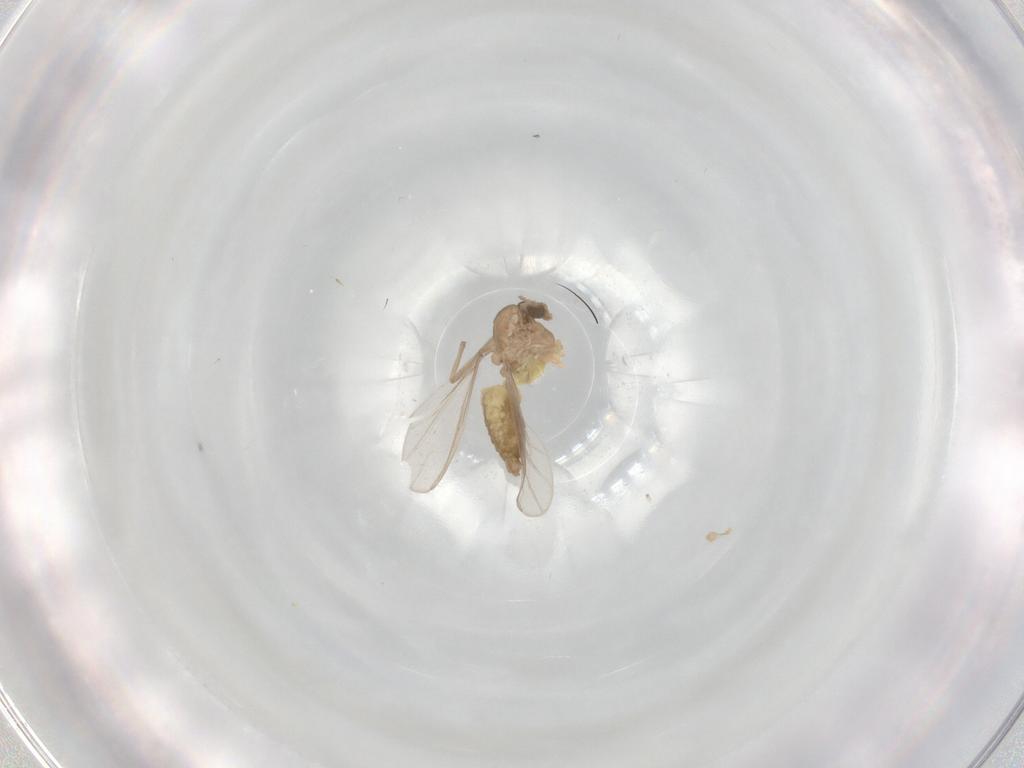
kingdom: Animalia
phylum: Arthropoda
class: Insecta
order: Diptera
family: Chironomidae
